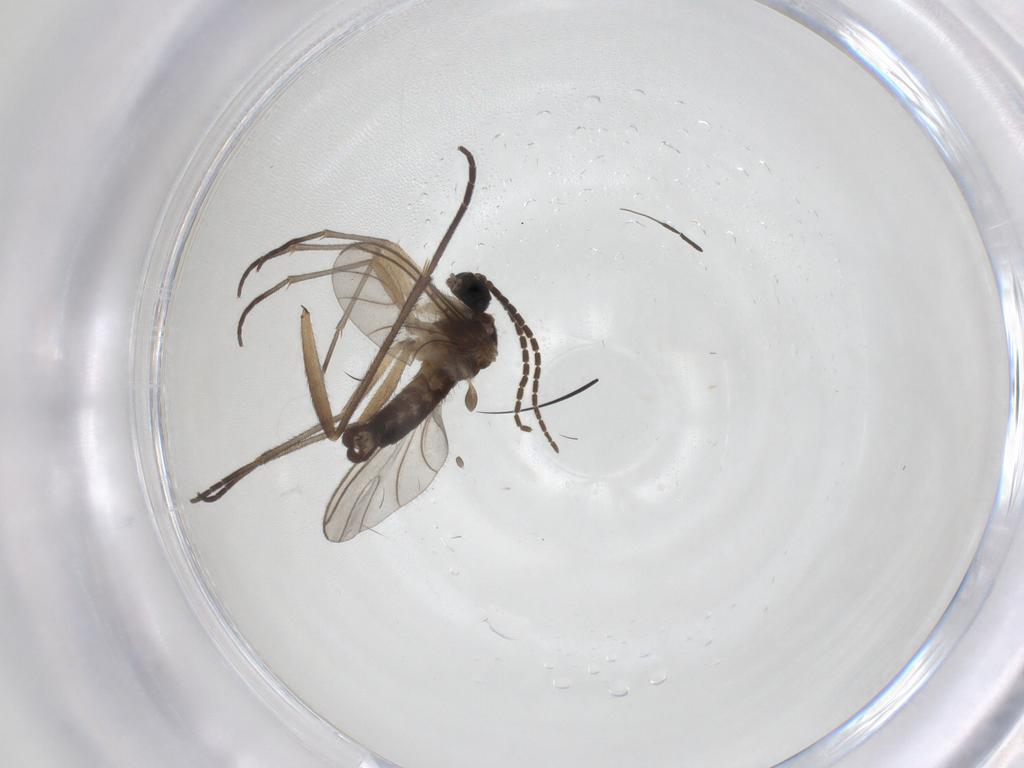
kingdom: Animalia
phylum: Arthropoda
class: Insecta
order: Diptera
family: Sciaridae
